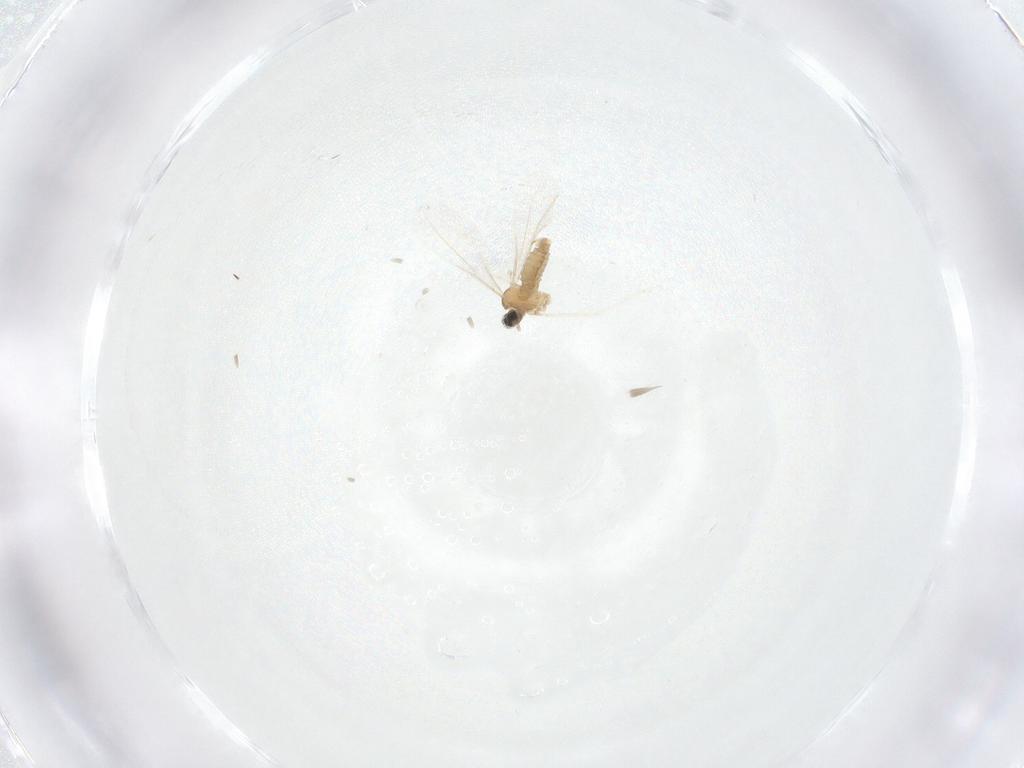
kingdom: Animalia
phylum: Arthropoda
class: Insecta
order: Diptera
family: Cecidomyiidae
